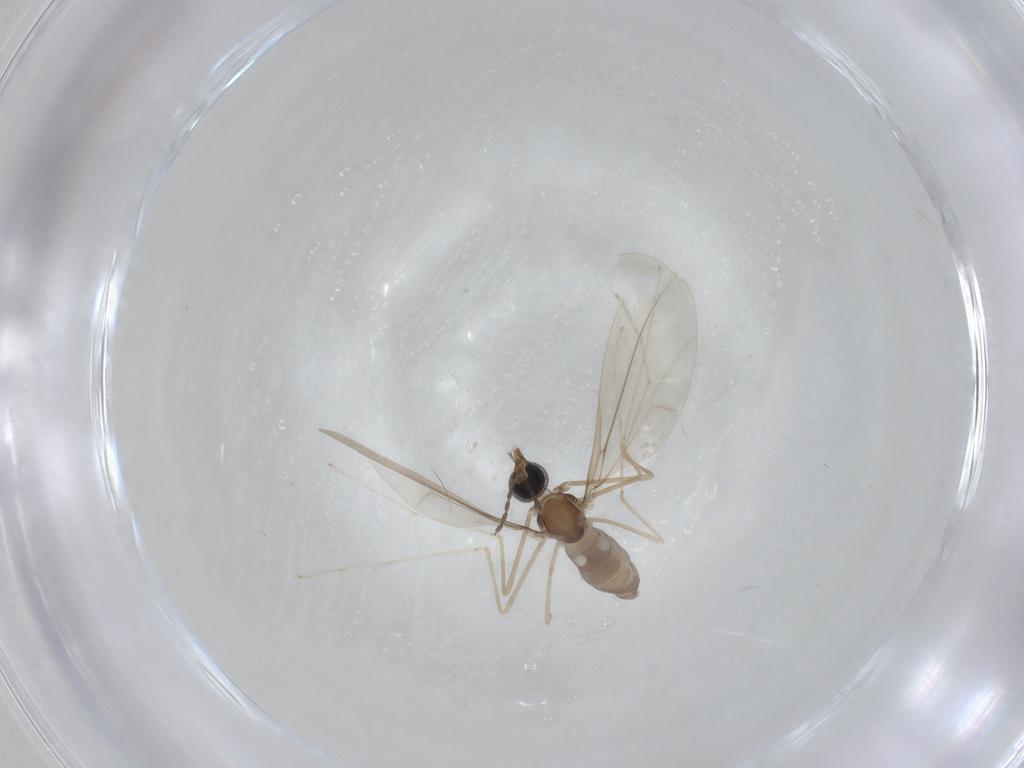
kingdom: Animalia
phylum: Arthropoda
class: Insecta
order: Diptera
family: Cecidomyiidae
